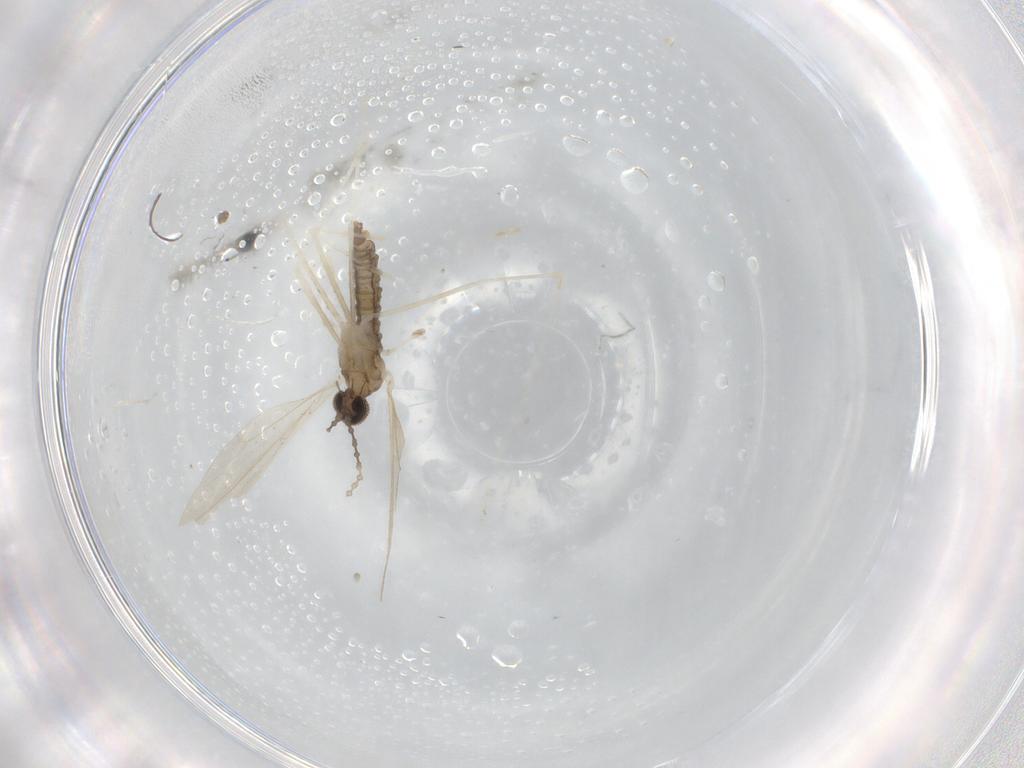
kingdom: Animalia
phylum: Arthropoda
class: Insecta
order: Diptera
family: Cecidomyiidae
